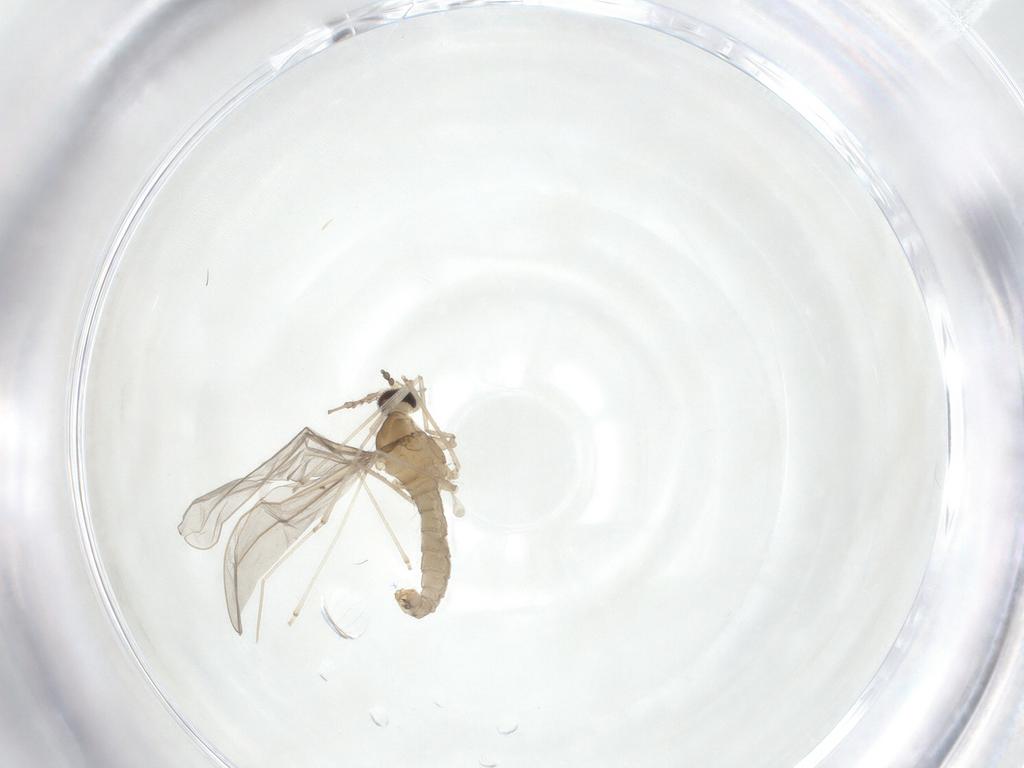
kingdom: Animalia
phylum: Arthropoda
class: Insecta
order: Diptera
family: Cecidomyiidae
